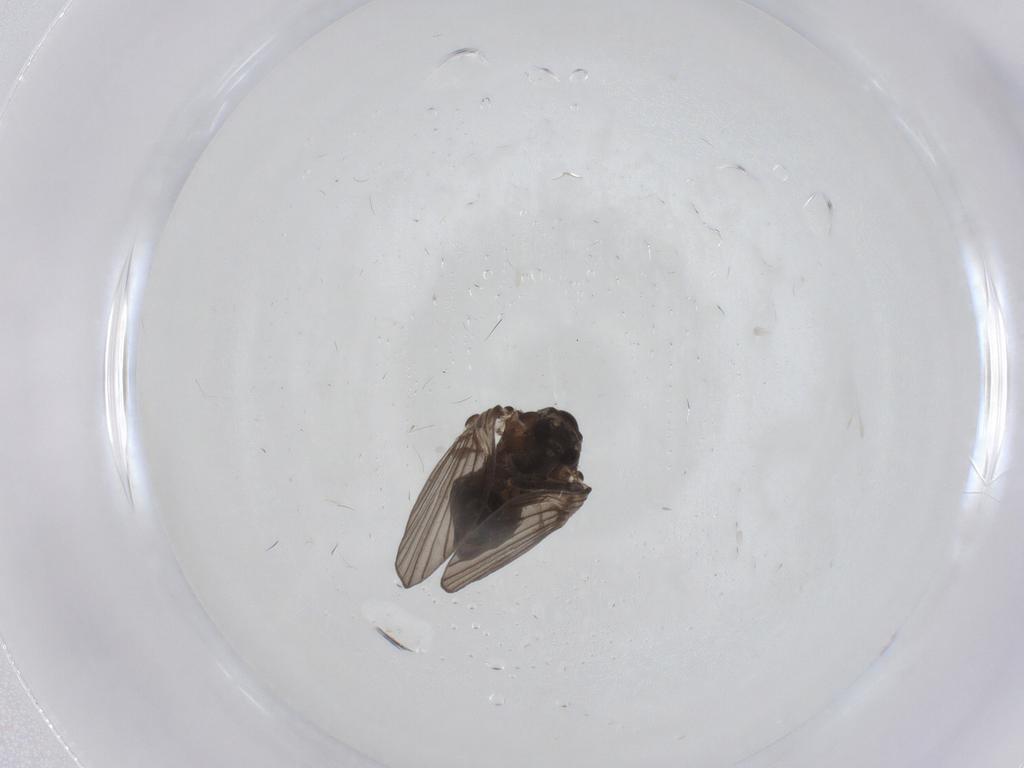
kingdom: Animalia
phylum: Arthropoda
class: Insecta
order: Diptera
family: Psychodidae
